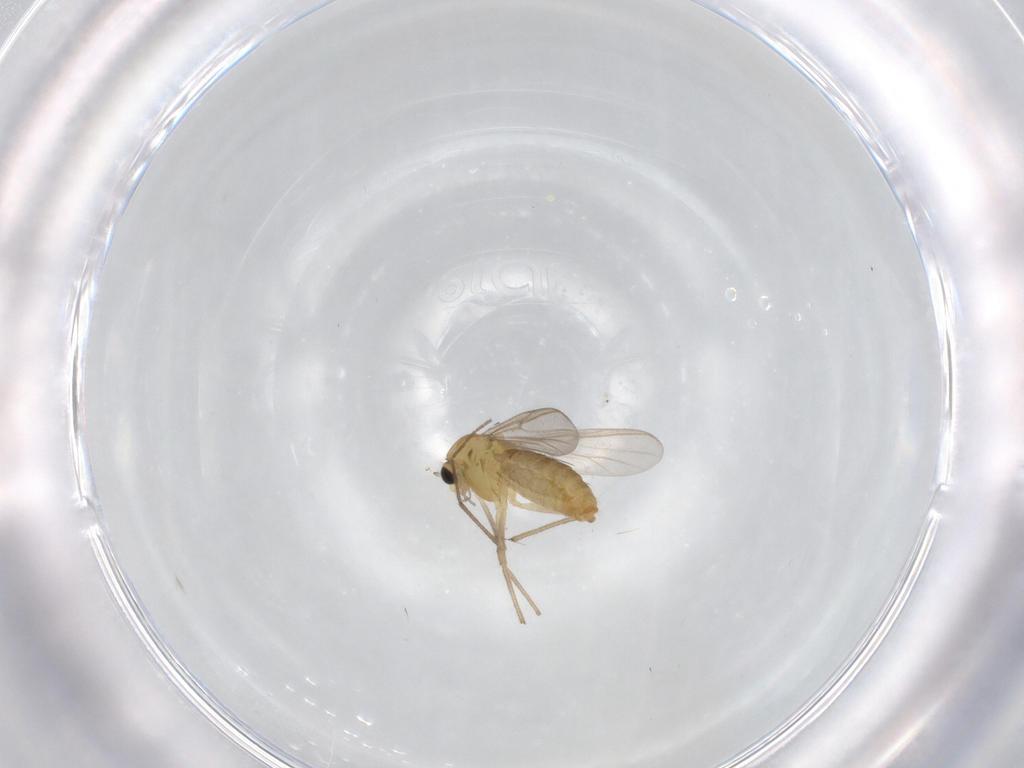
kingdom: Animalia
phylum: Arthropoda
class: Insecta
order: Diptera
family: Chironomidae
